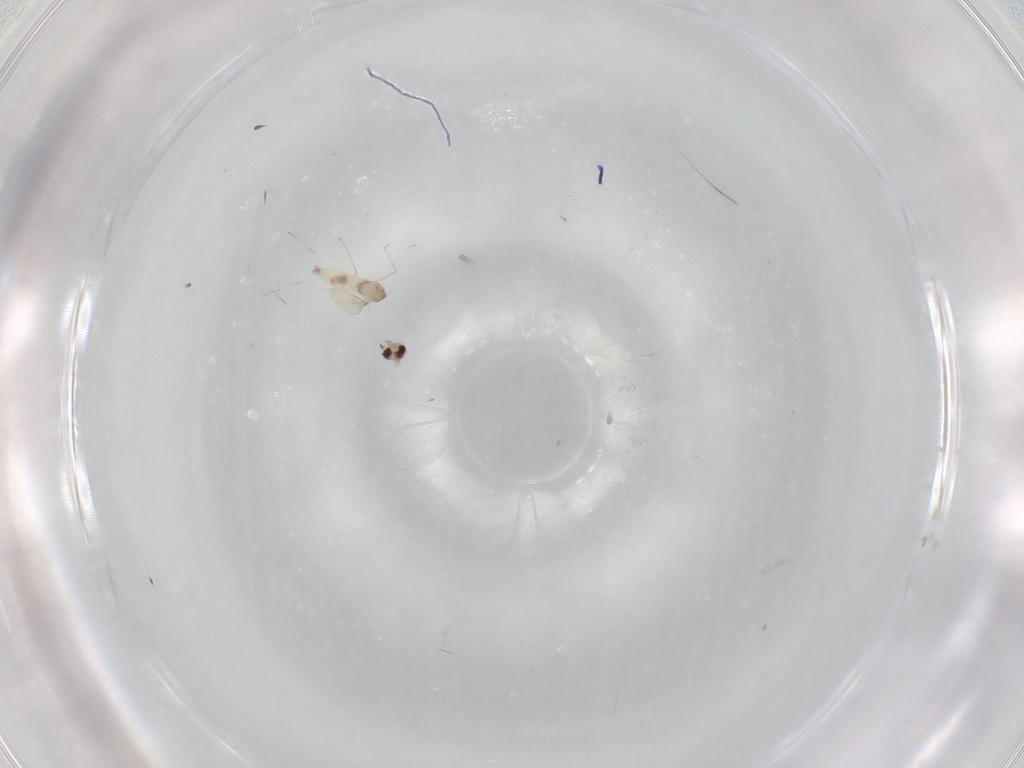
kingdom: Animalia
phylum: Arthropoda
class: Insecta
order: Diptera
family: Cecidomyiidae
